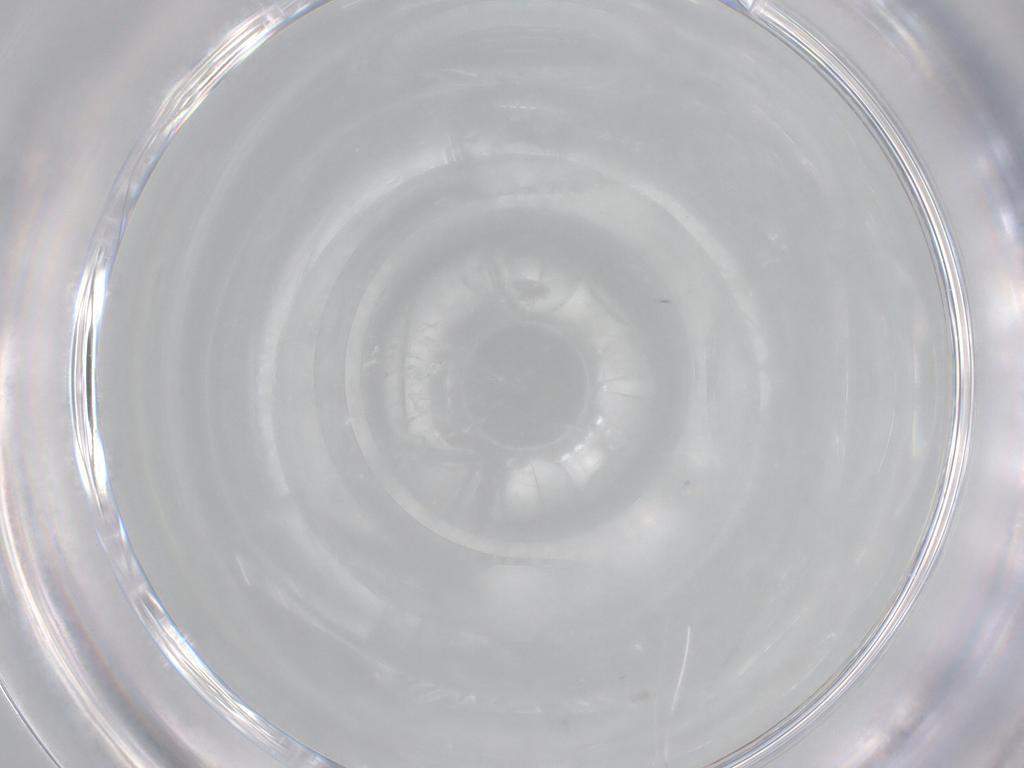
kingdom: Animalia
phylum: Arthropoda
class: Insecta
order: Diptera
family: Chironomidae
